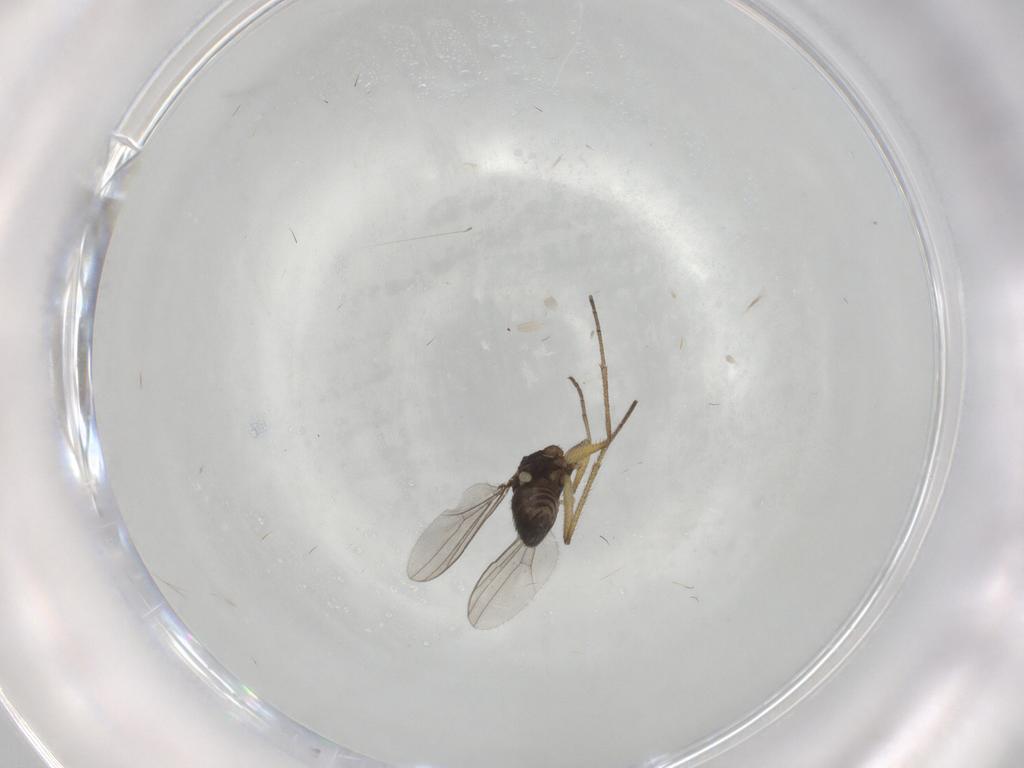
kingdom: Animalia
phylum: Arthropoda
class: Insecta
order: Diptera
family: Dolichopodidae
